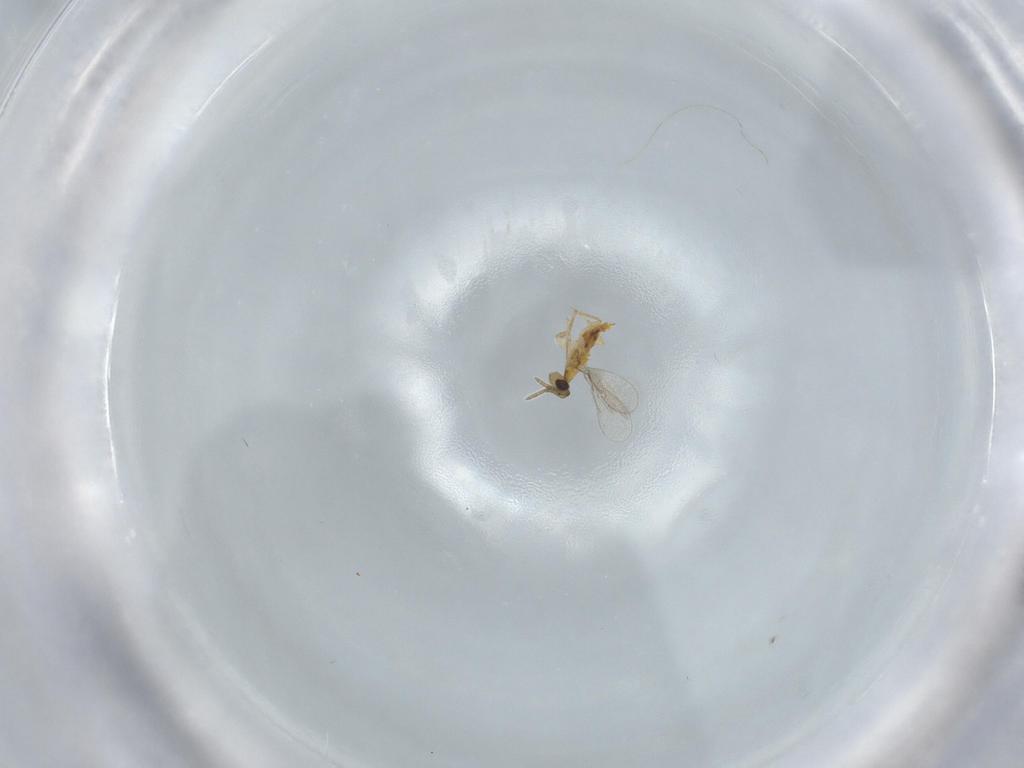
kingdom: Animalia
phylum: Arthropoda
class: Insecta
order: Hymenoptera
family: Aphelinidae
